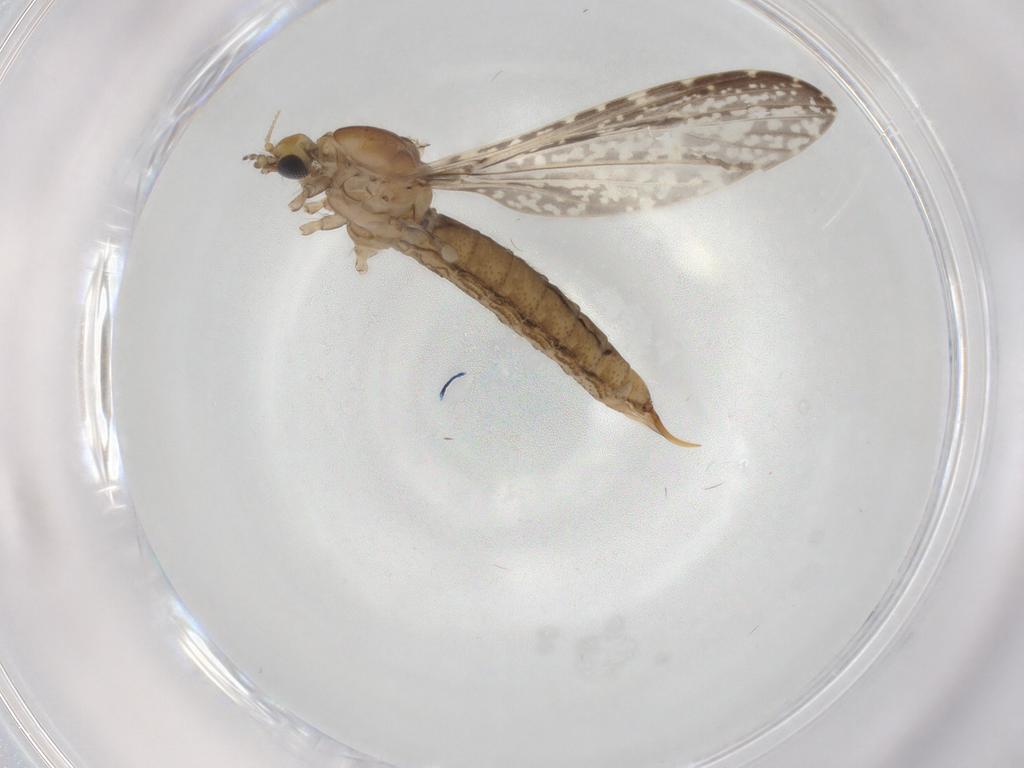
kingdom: Animalia
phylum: Arthropoda
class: Insecta
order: Diptera
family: Limoniidae
